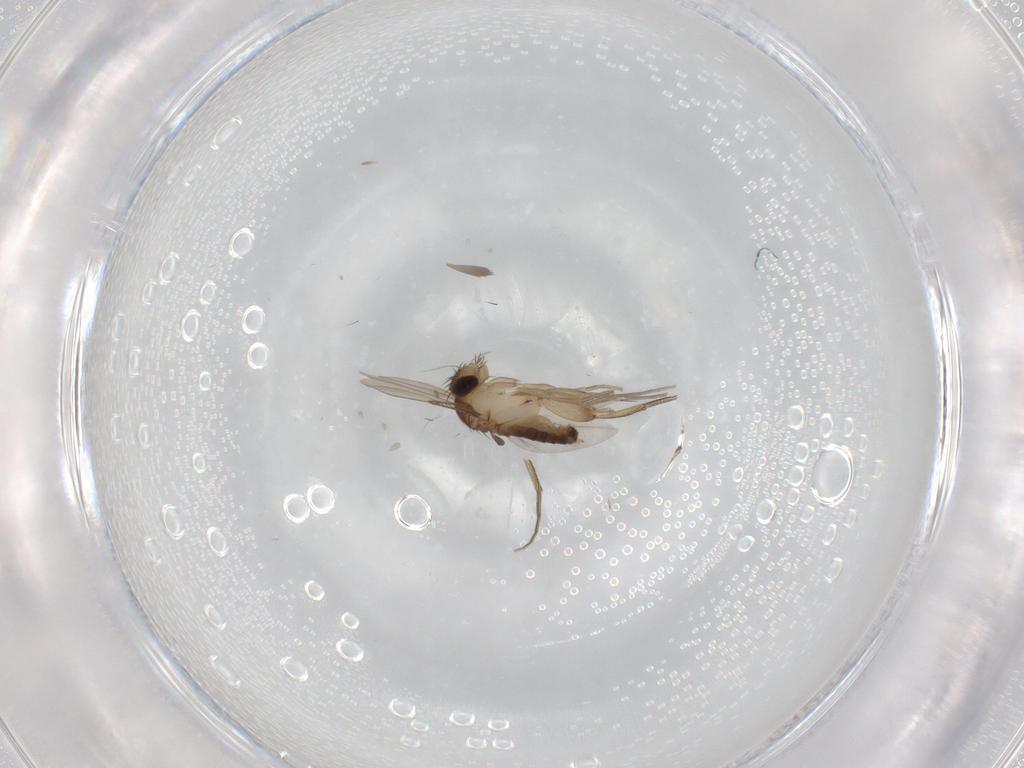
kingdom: Animalia
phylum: Arthropoda
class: Insecta
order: Diptera
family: Phoridae
